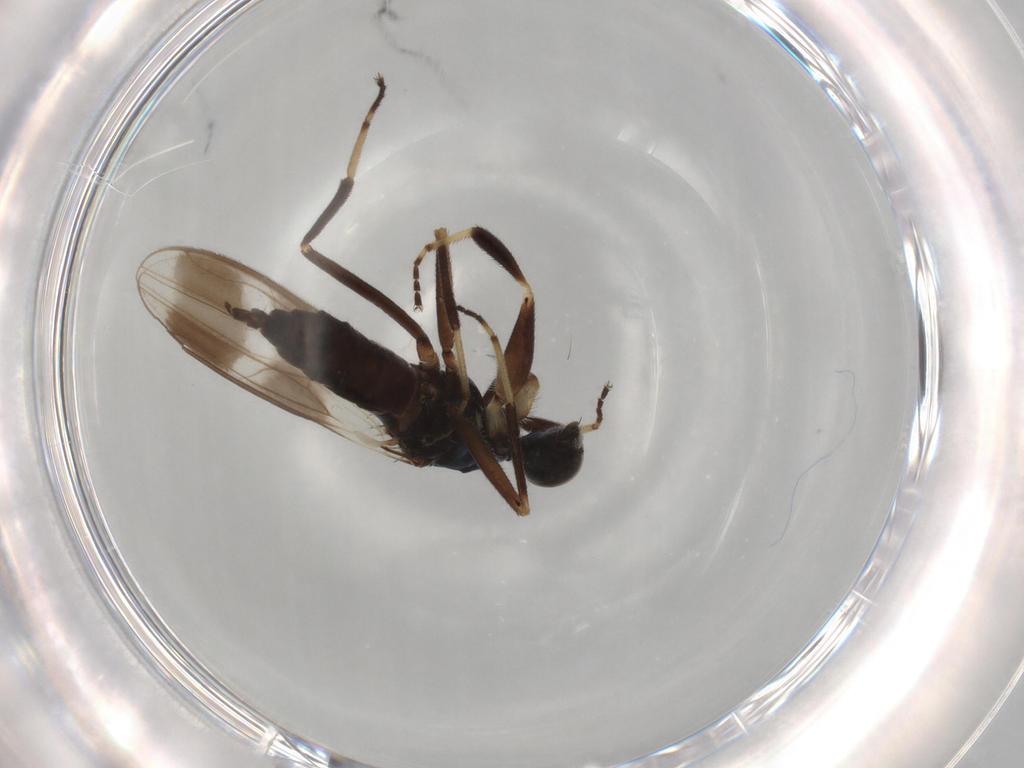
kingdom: Animalia
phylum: Arthropoda
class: Insecta
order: Diptera
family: Hybotidae
